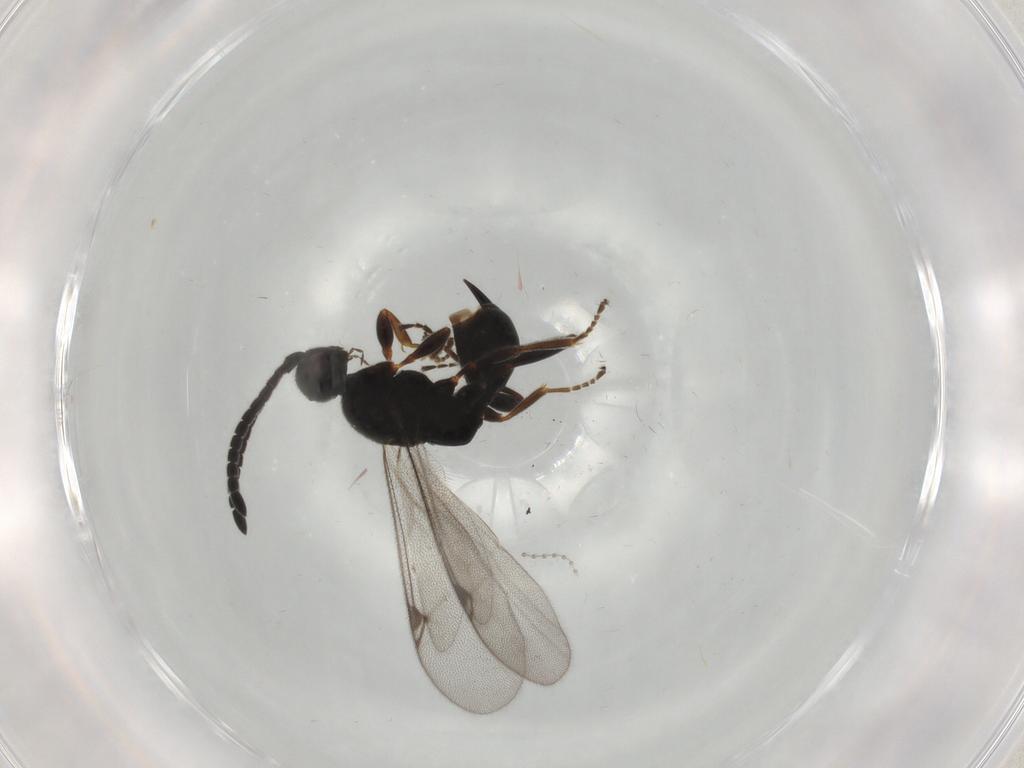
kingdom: Animalia
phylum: Arthropoda
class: Insecta
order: Hymenoptera
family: Proctotrupidae
